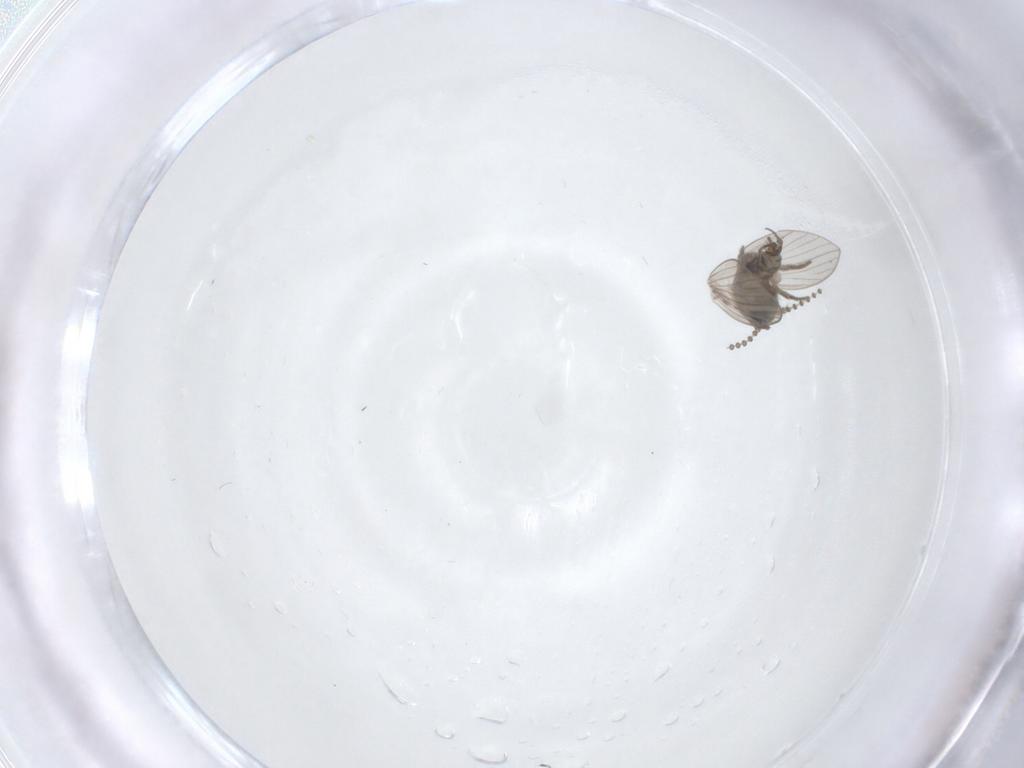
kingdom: Animalia
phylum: Arthropoda
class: Insecta
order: Diptera
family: Psychodidae
